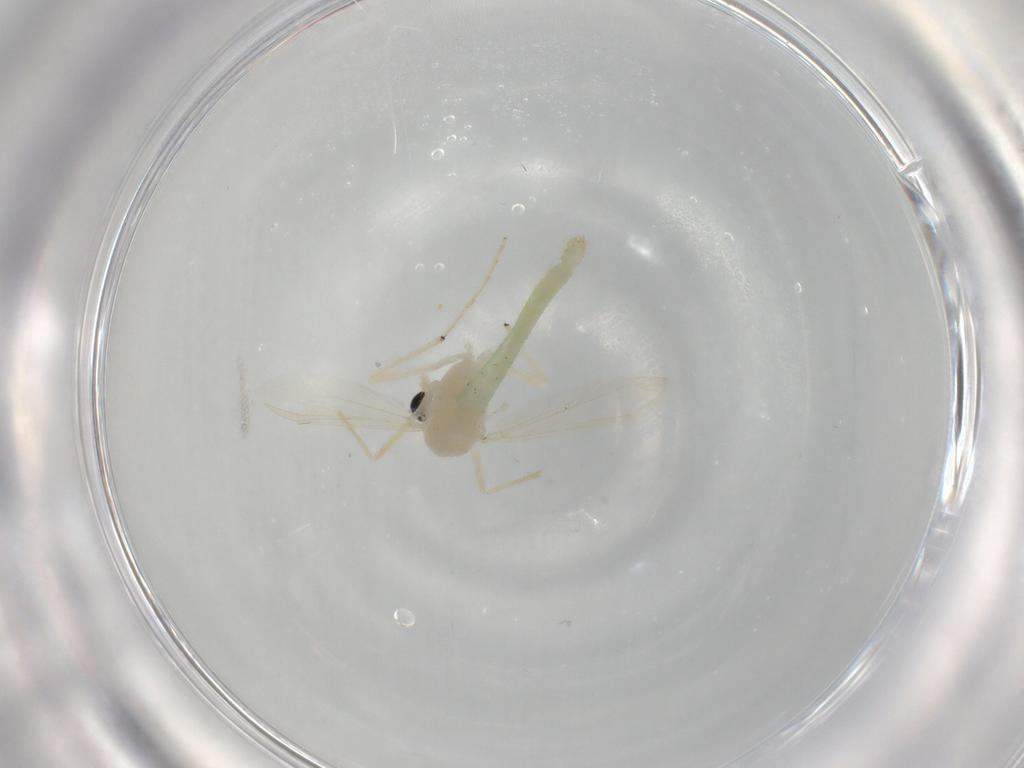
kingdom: Animalia
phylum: Arthropoda
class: Insecta
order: Diptera
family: Chironomidae
